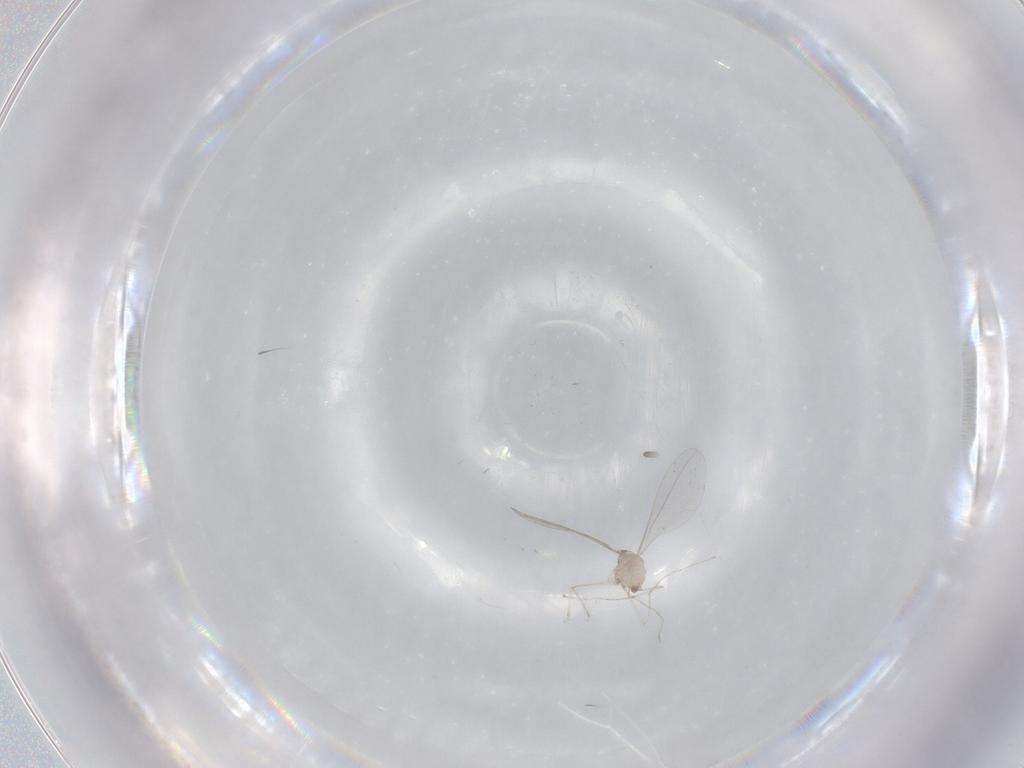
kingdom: Animalia
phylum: Arthropoda
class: Insecta
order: Diptera
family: Cecidomyiidae
